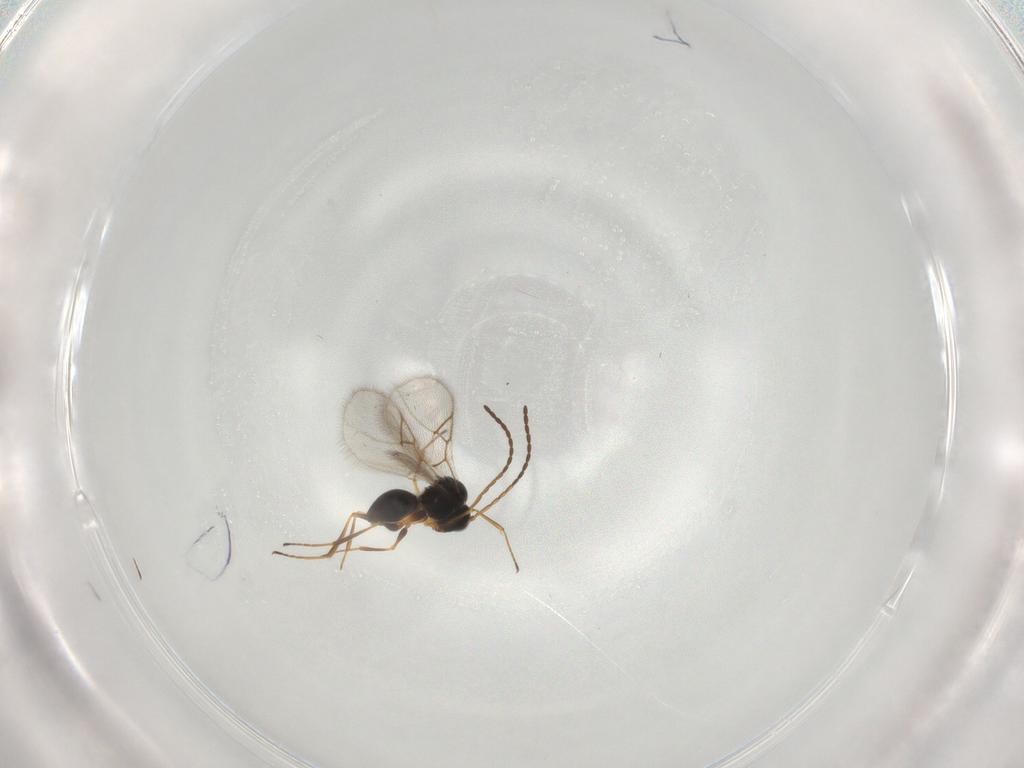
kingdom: Animalia
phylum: Arthropoda
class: Insecta
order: Hymenoptera
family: Figitidae
